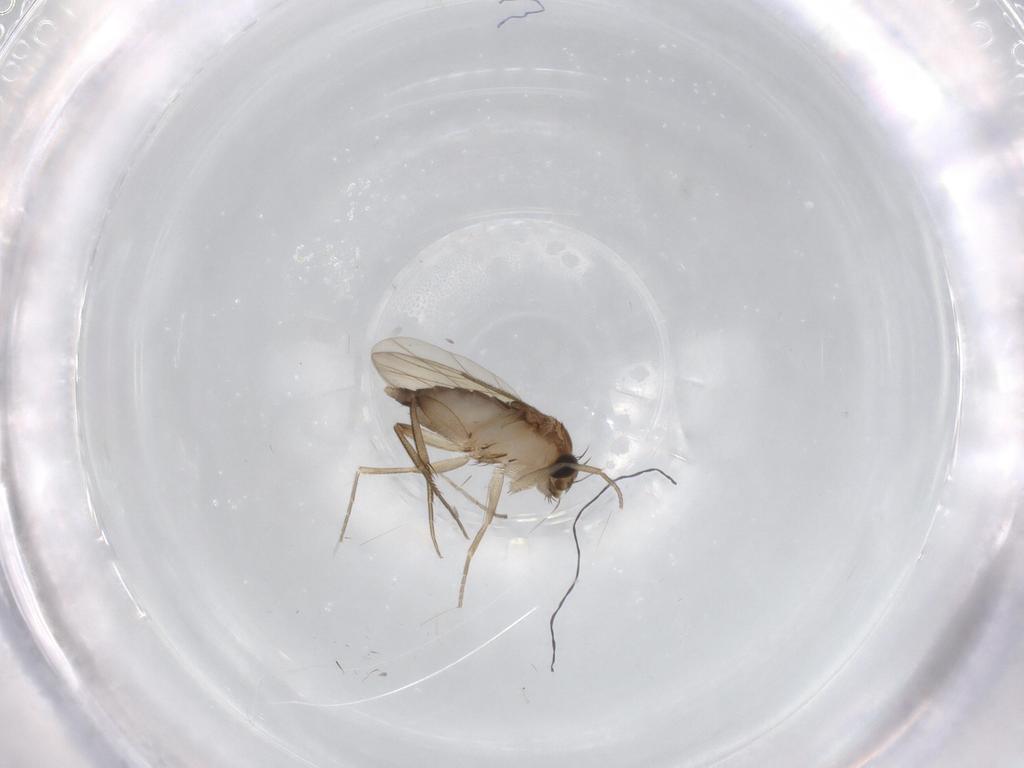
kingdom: Animalia
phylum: Arthropoda
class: Insecta
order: Diptera
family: Phoridae
